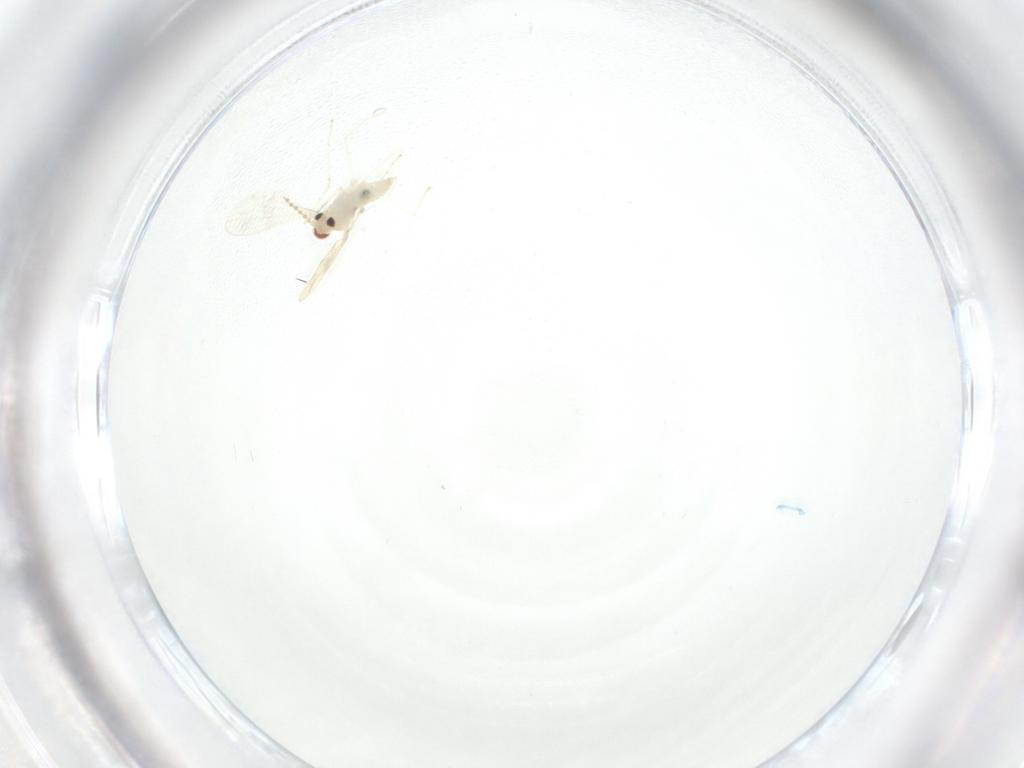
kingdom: Animalia
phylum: Arthropoda
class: Insecta
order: Diptera
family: Cecidomyiidae
